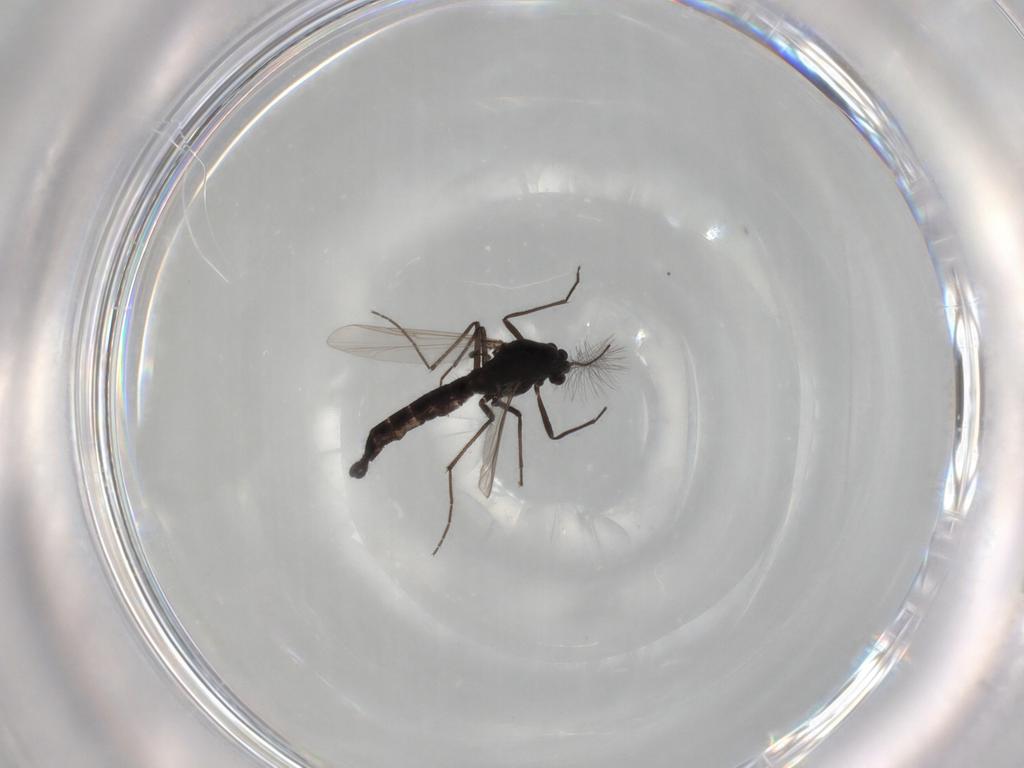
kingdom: Animalia
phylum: Arthropoda
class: Insecta
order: Diptera
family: Chironomidae
